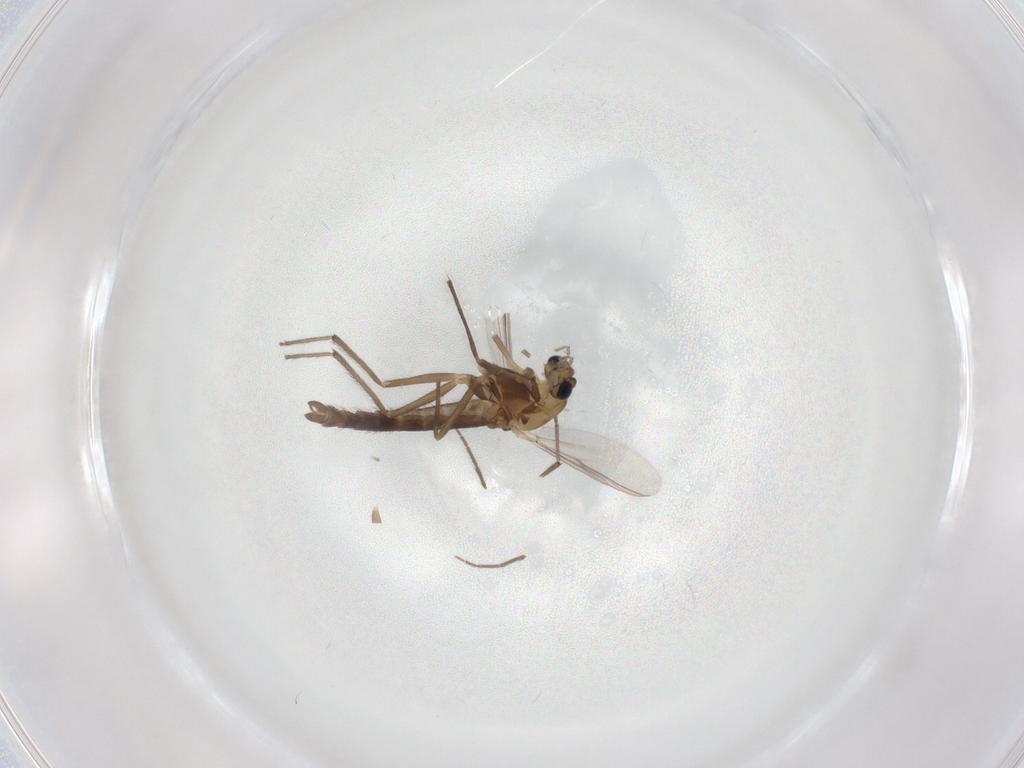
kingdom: Animalia
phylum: Arthropoda
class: Insecta
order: Diptera
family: Chironomidae
